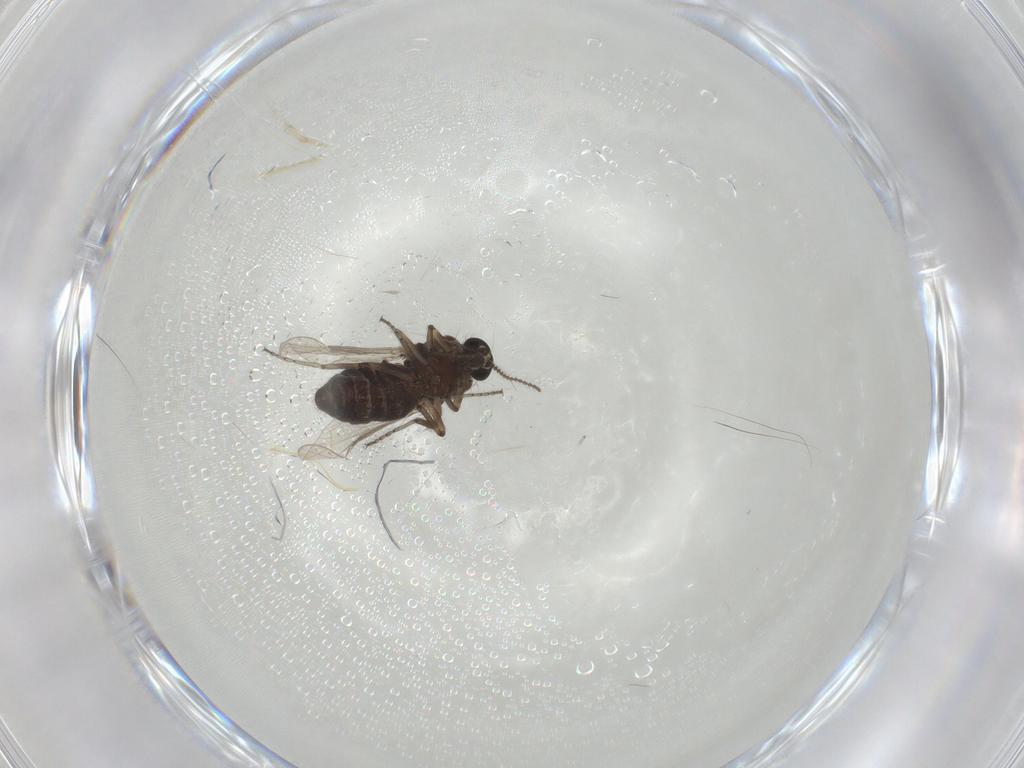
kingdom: Animalia
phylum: Arthropoda
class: Insecta
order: Diptera
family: Ceratopogonidae
